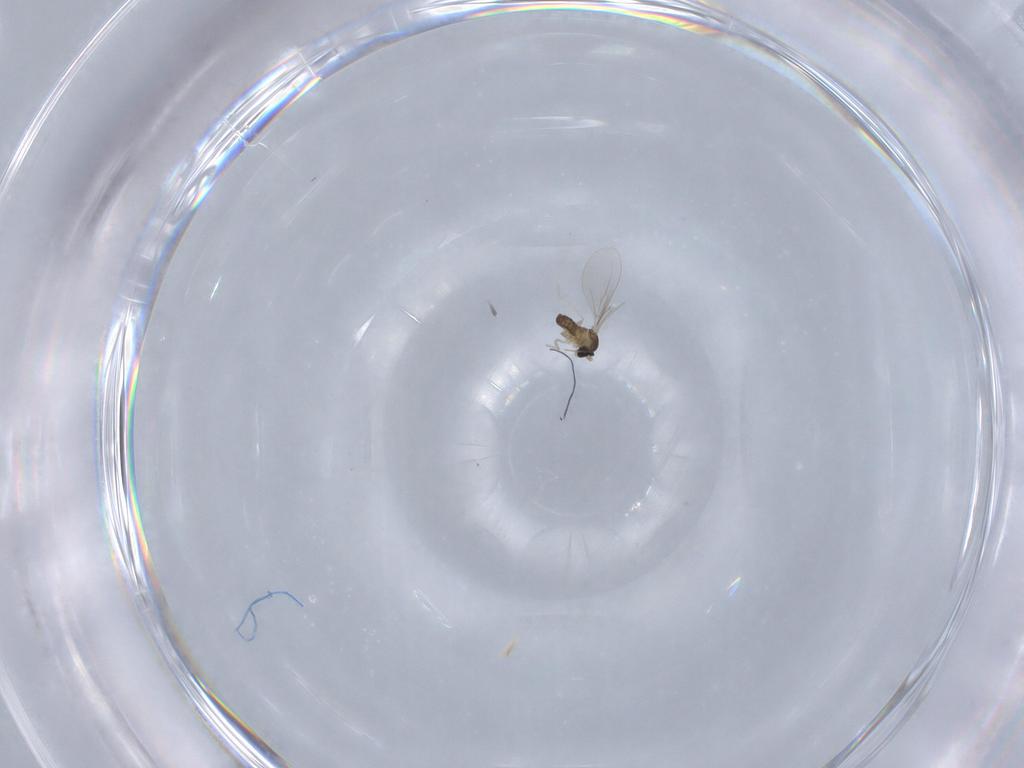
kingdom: Animalia
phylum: Arthropoda
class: Insecta
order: Diptera
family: Cecidomyiidae
